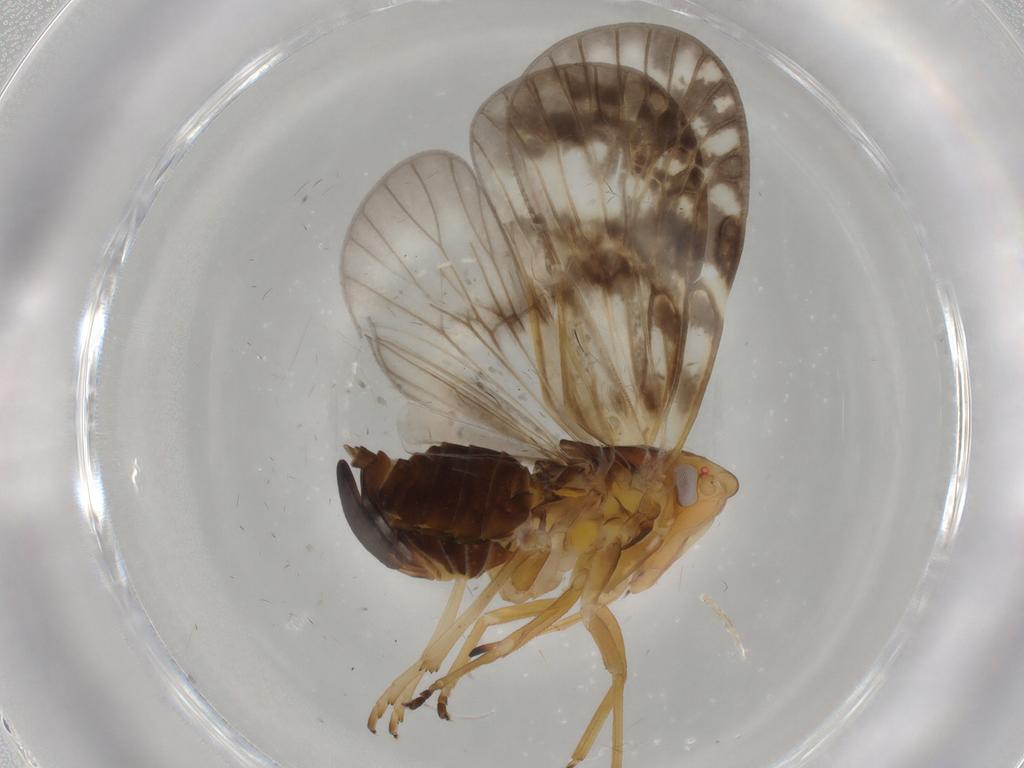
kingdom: Animalia
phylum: Arthropoda
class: Insecta
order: Hemiptera
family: Cixiidae
